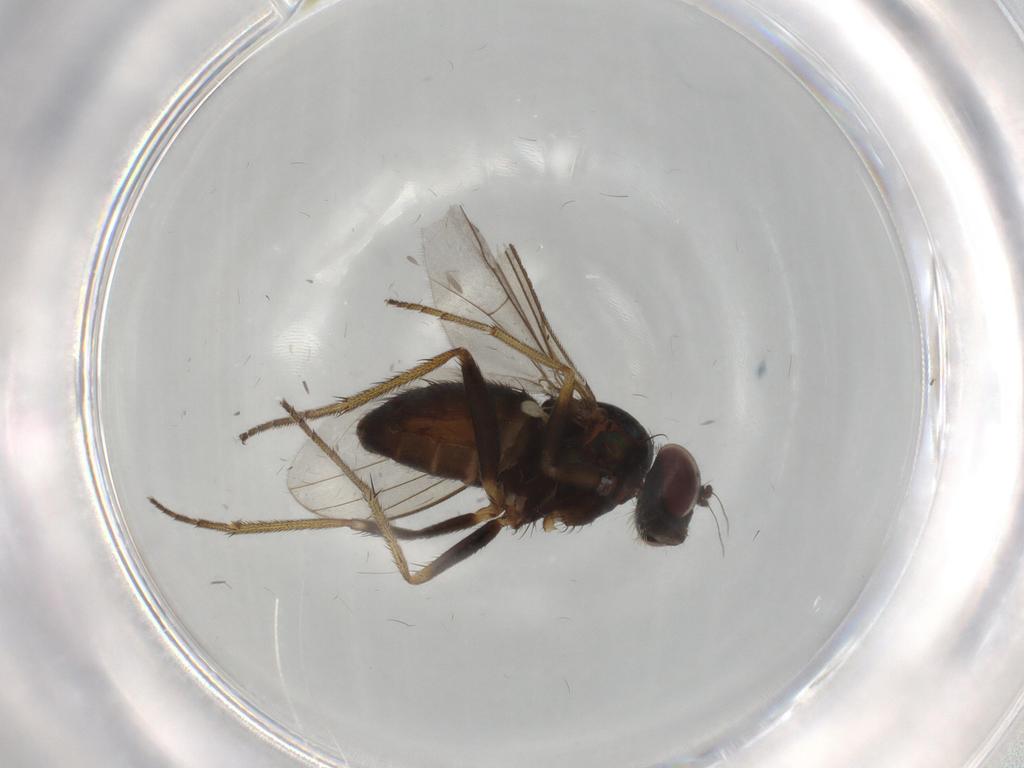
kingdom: Animalia
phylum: Arthropoda
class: Insecta
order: Diptera
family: Dolichopodidae
